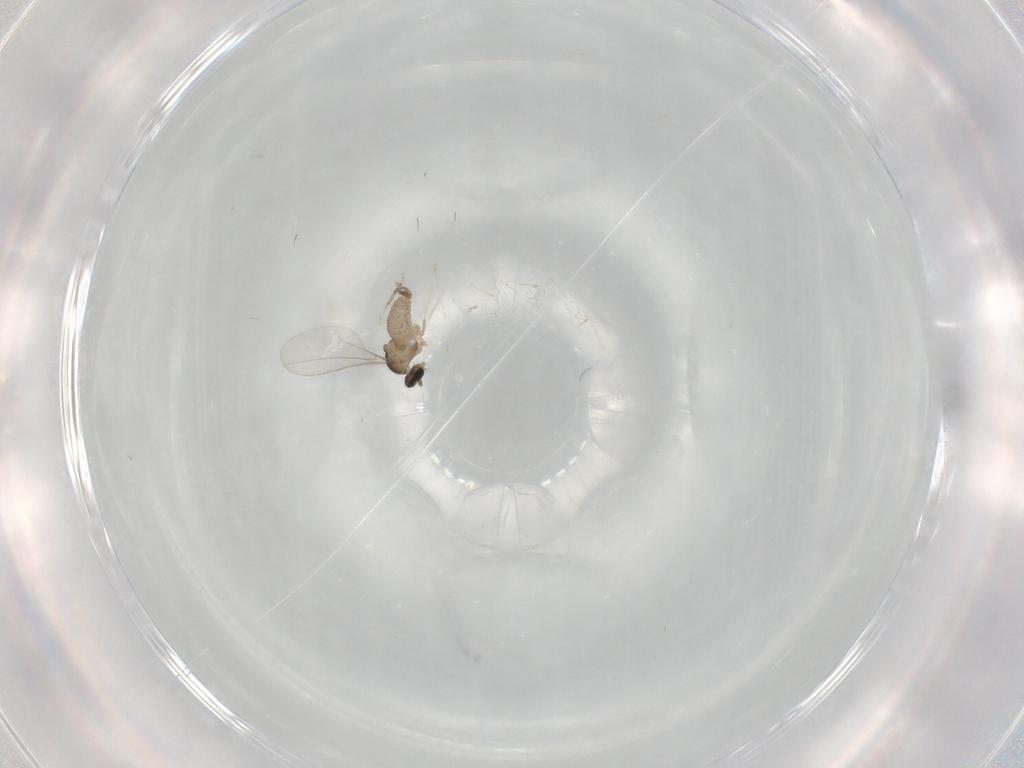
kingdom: Animalia
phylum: Arthropoda
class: Insecta
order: Diptera
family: Cecidomyiidae
